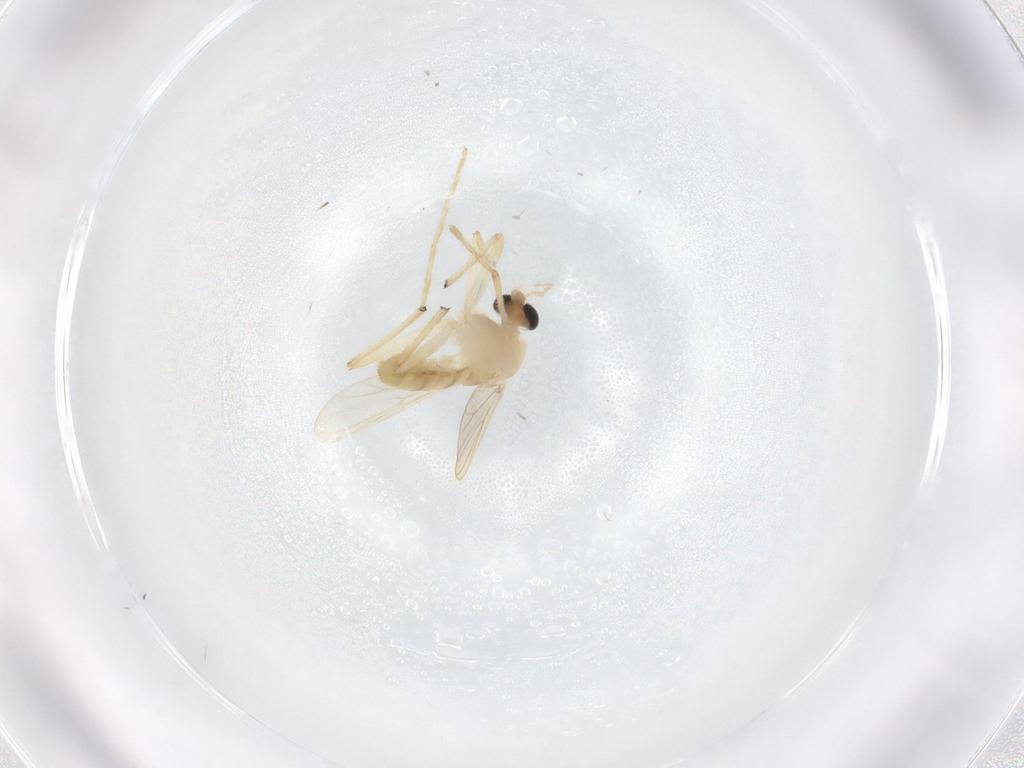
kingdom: Animalia
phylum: Arthropoda
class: Insecta
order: Diptera
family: Chironomidae
